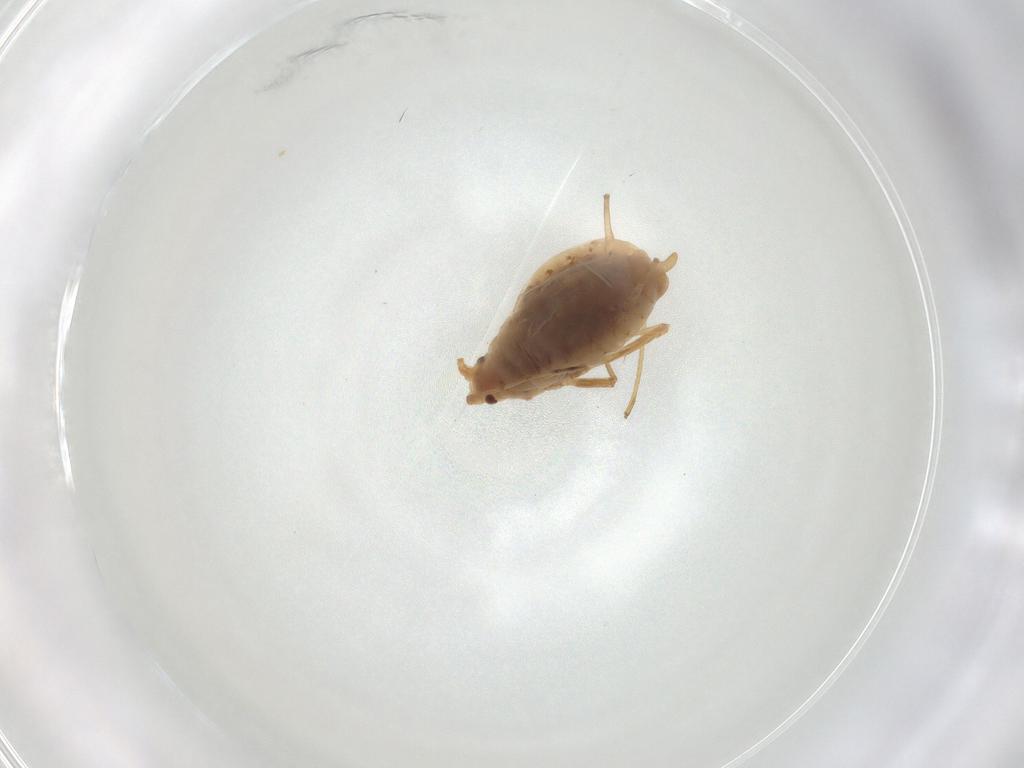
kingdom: Animalia
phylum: Arthropoda
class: Insecta
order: Hemiptera
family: Aphididae
